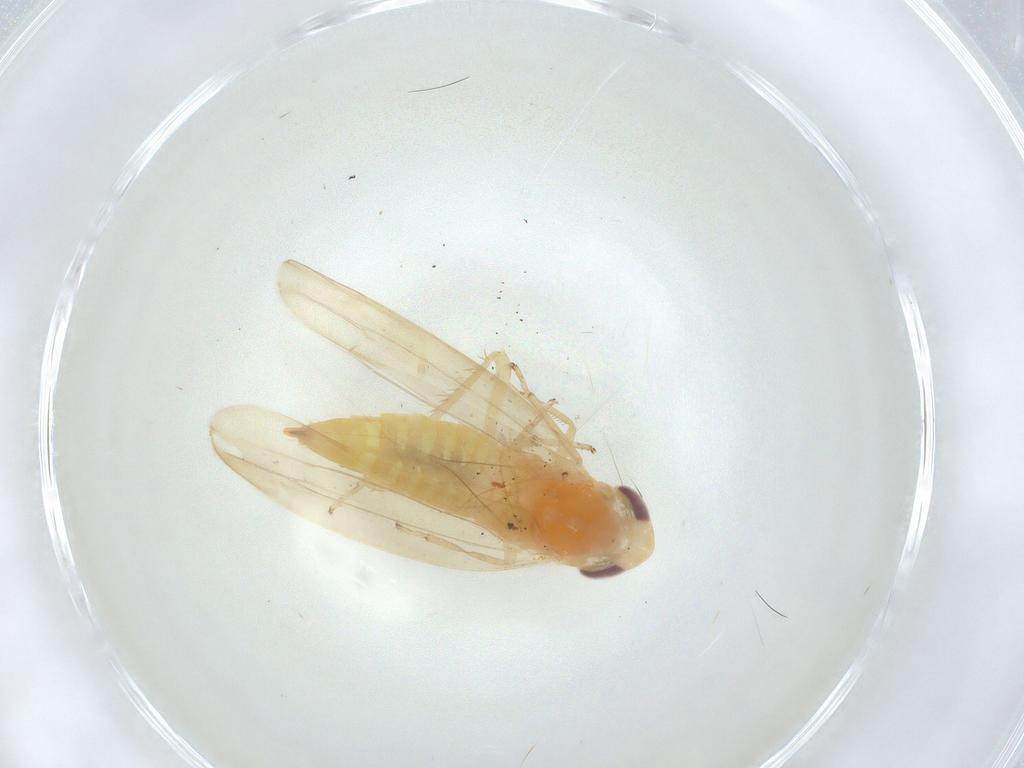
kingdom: Animalia
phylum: Arthropoda
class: Insecta
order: Hemiptera
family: Cicadellidae
